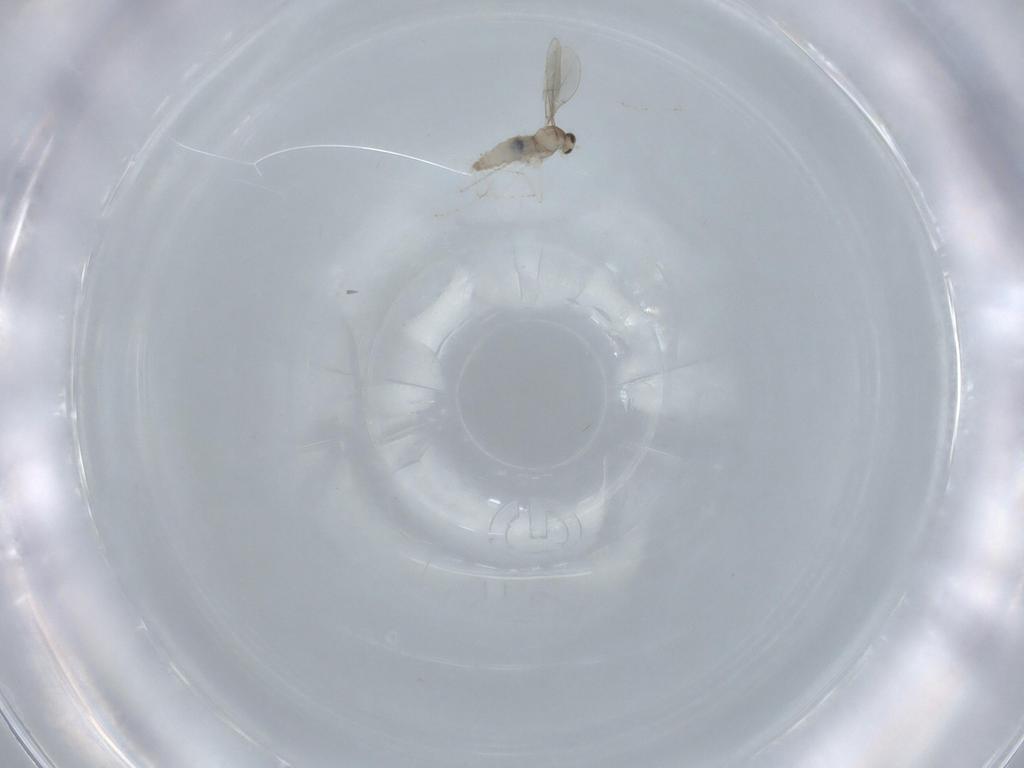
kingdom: Animalia
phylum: Arthropoda
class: Insecta
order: Diptera
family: Cecidomyiidae
